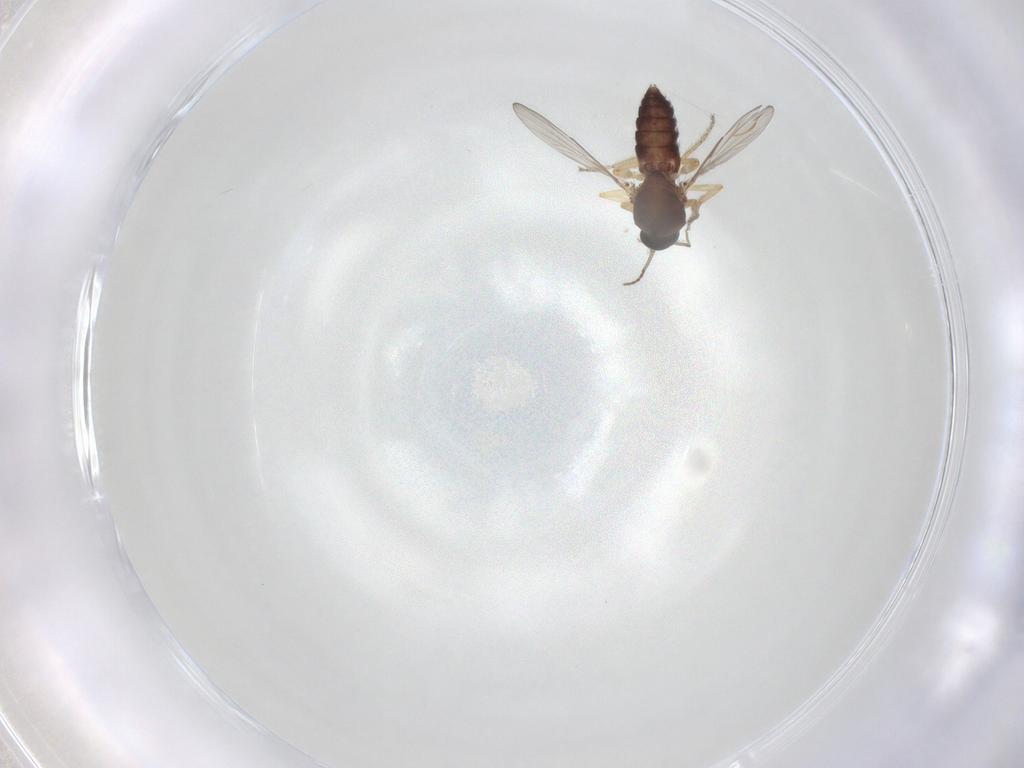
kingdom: Animalia
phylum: Arthropoda
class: Insecta
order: Diptera
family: Ceratopogonidae
